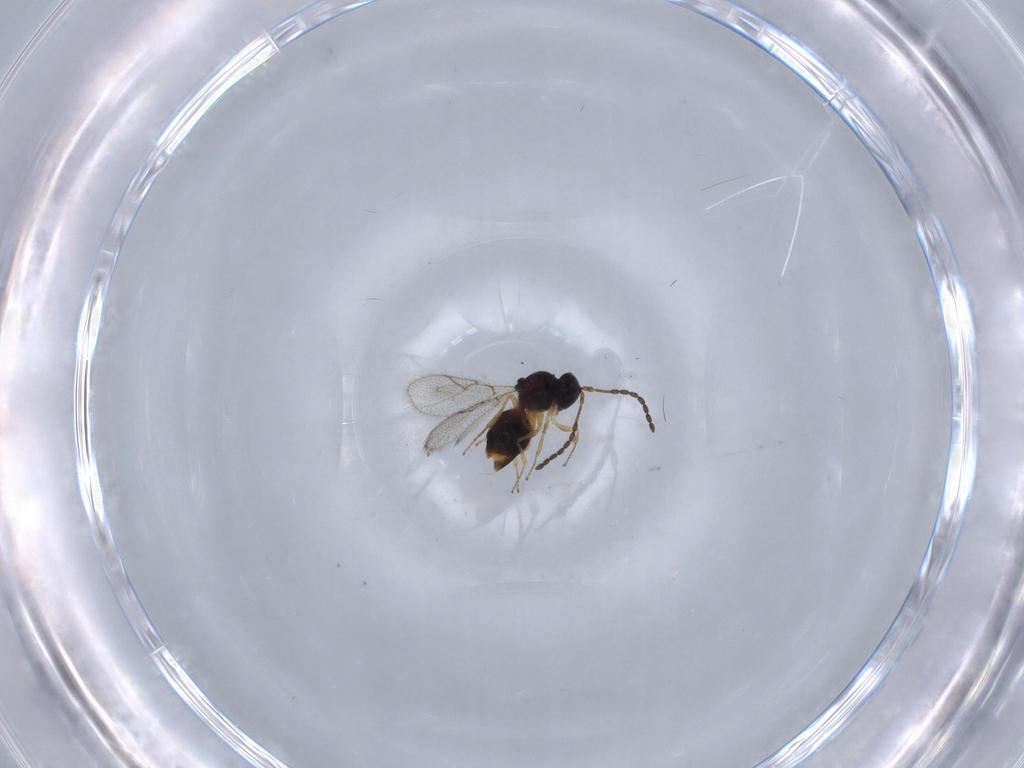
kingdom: Animalia
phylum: Arthropoda
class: Insecta
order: Hymenoptera
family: Figitidae
